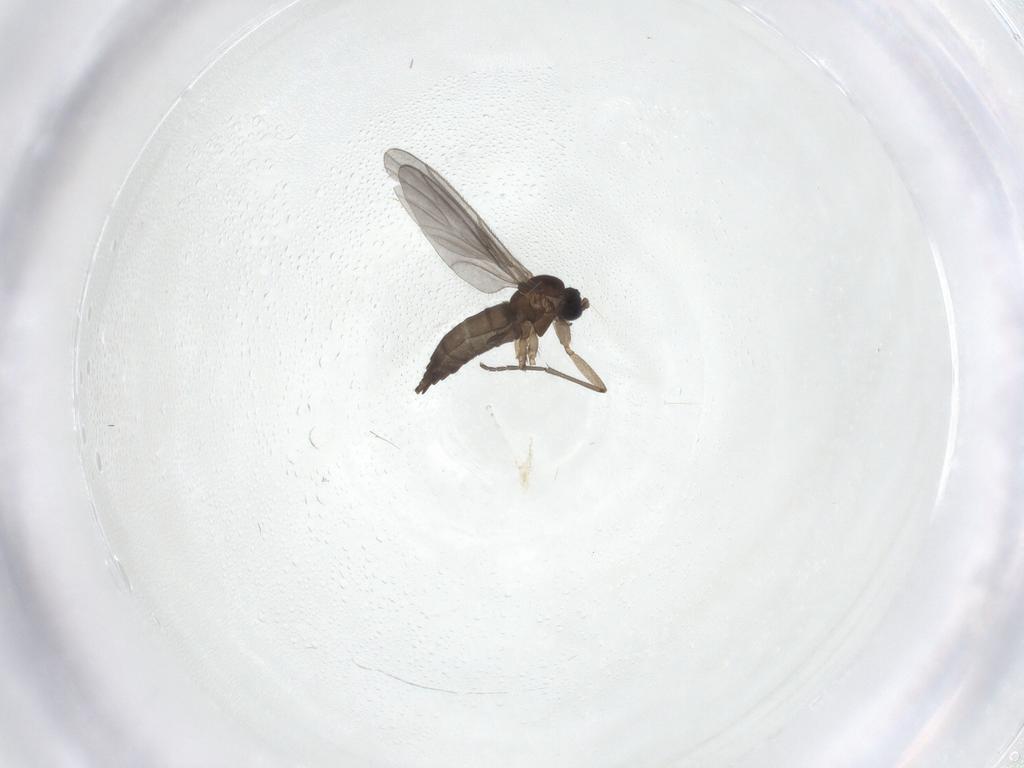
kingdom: Animalia
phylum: Arthropoda
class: Insecta
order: Diptera
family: Sciaridae
